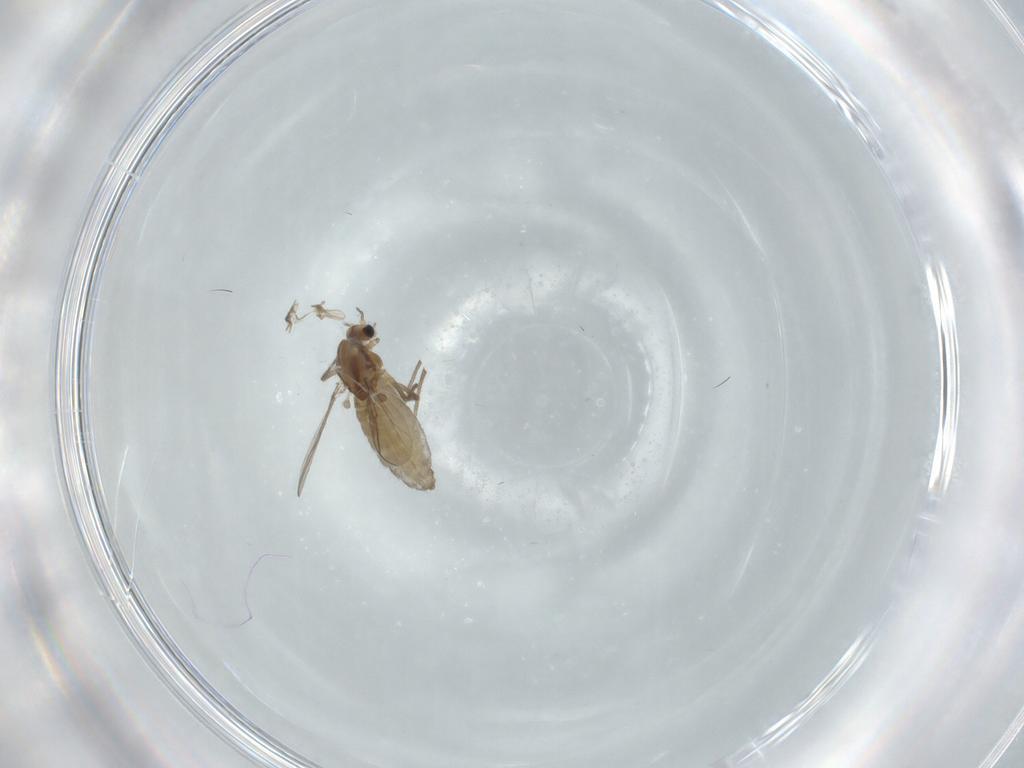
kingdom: Animalia
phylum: Arthropoda
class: Insecta
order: Diptera
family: Chironomidae
